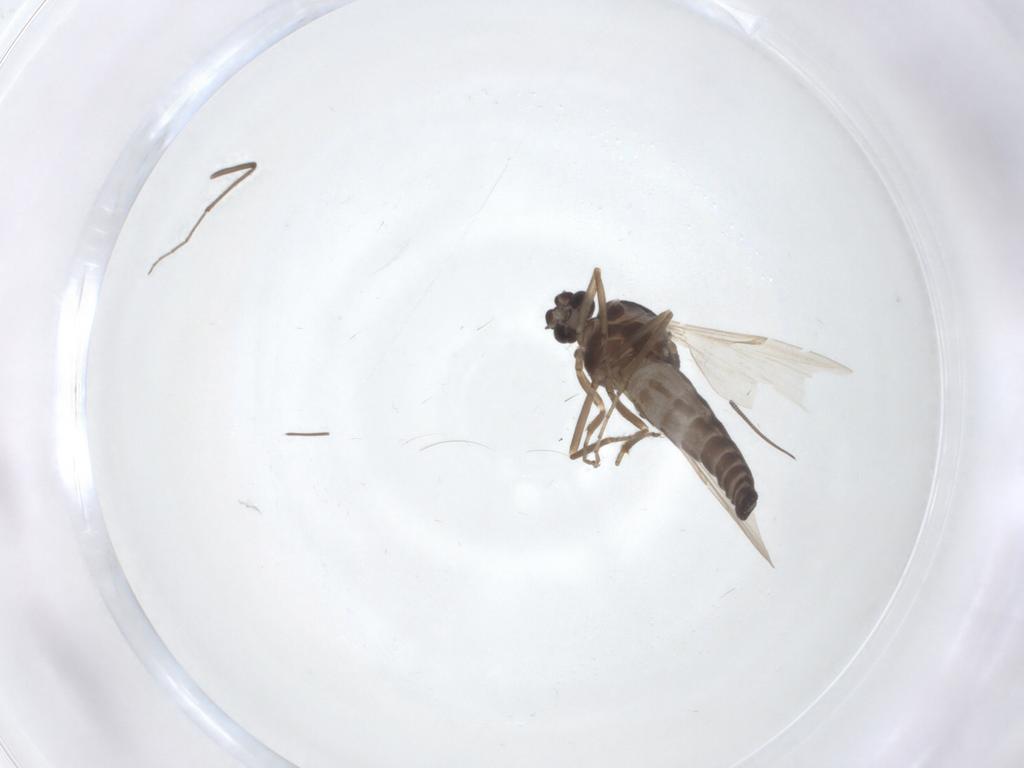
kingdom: Animalia
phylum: Arthropoda
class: Insecta
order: Diptera
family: Ceratopogonidae
